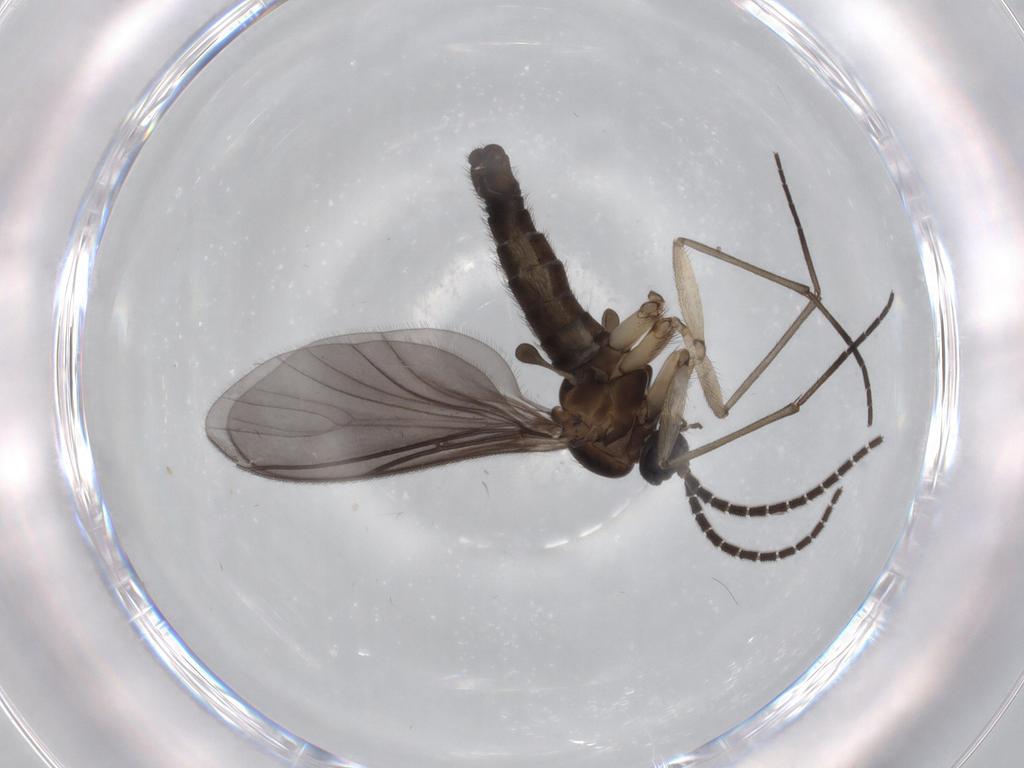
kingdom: Animalia
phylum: Arthropoda
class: Insecta
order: Diptera
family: Sciaridae
